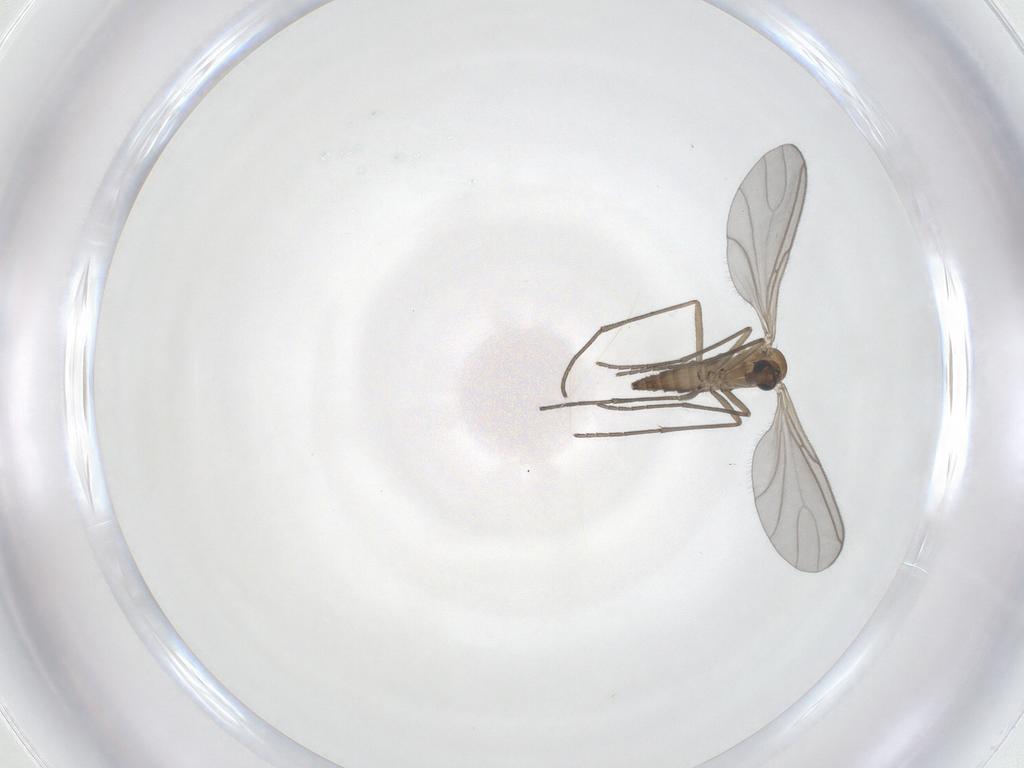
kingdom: Animalia
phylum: Arthropoda
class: Insecta
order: Diptera
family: Sciaridae
